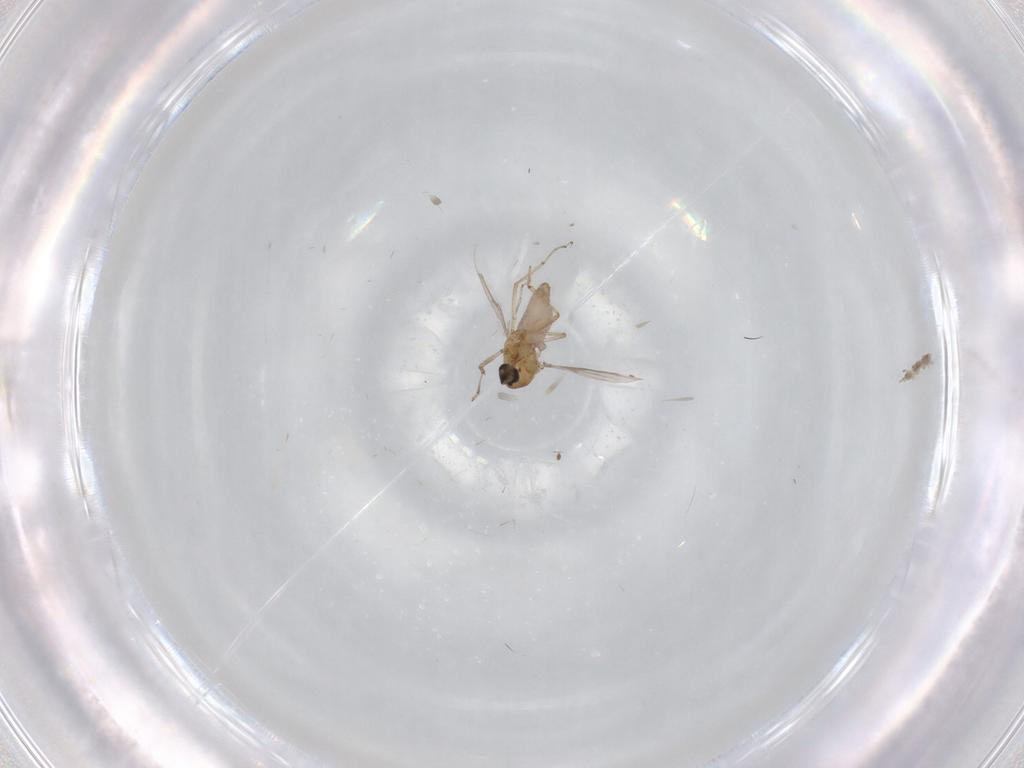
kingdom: Animalia
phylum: Arthropoda
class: Insecta
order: Diptera
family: Ceratopogonidae
